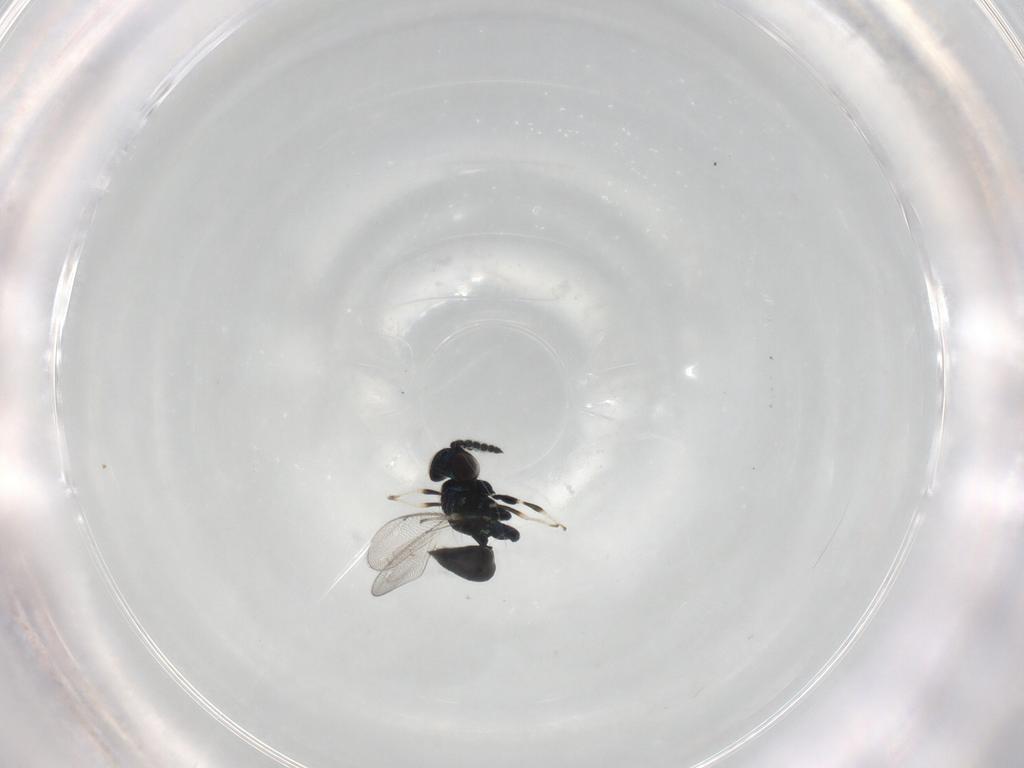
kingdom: Animalia
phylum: Arthropoda
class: Insecta
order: Hymenoptera
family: Eulophidae
